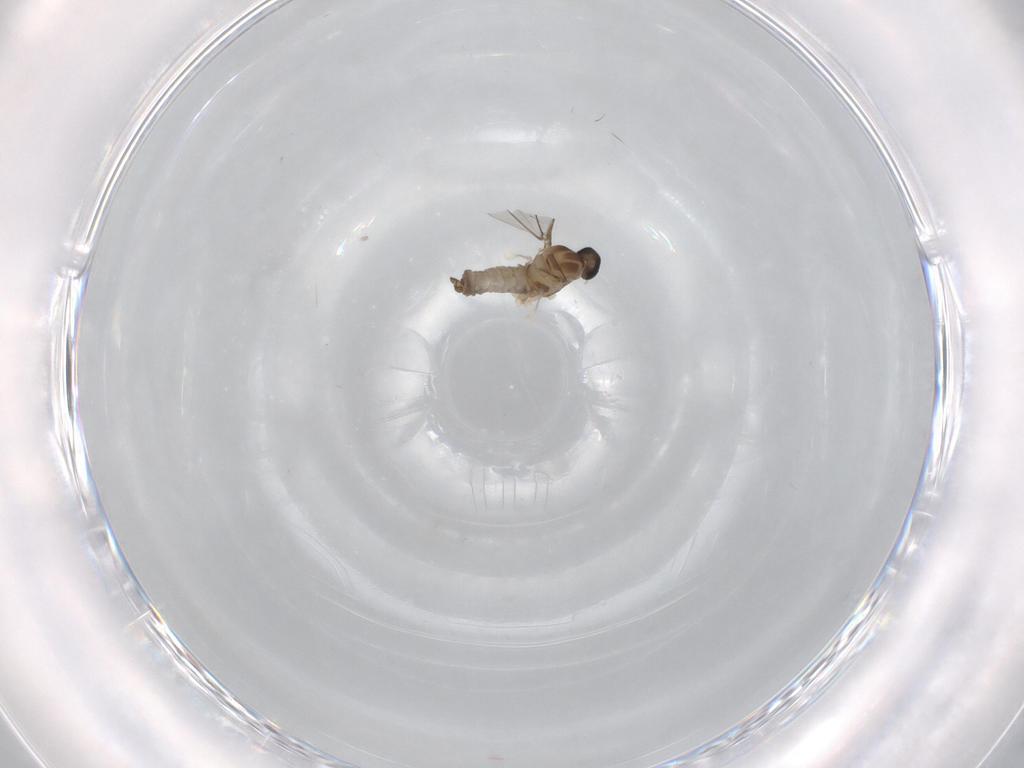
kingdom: Animalia
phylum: Arthropoda
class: Insecta
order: Diptera
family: Cecidomyiidae
